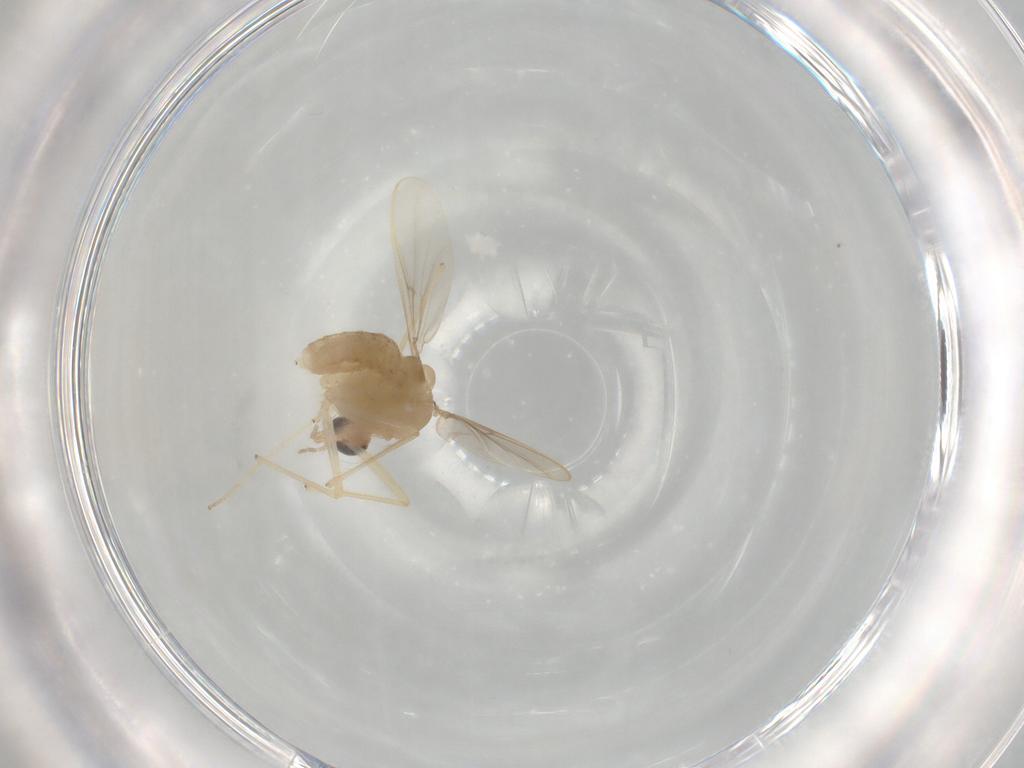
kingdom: Animalia
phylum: Arthropoda
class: Insecta
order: Diptera
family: Chironomidae
